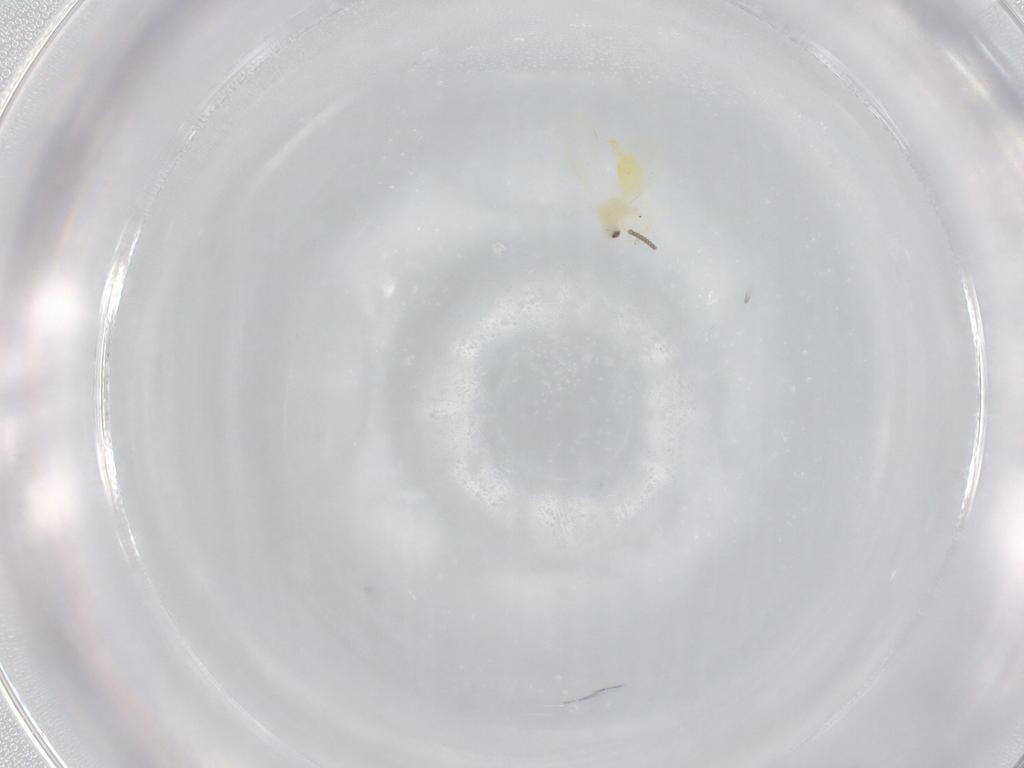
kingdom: Animalia
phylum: Arthropoda
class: Insecta
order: Hemiptera
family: Aleyrodidae
